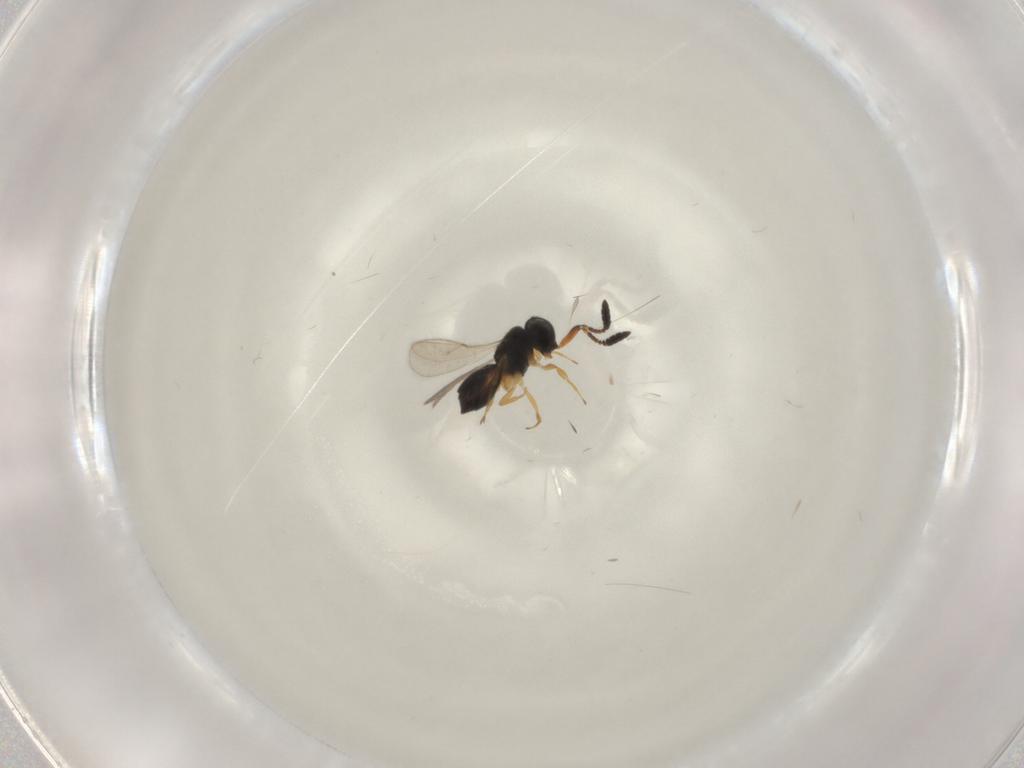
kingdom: Animalia
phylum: Arthropoda
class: Insecta
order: Hymenoptera
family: Scelionidae
